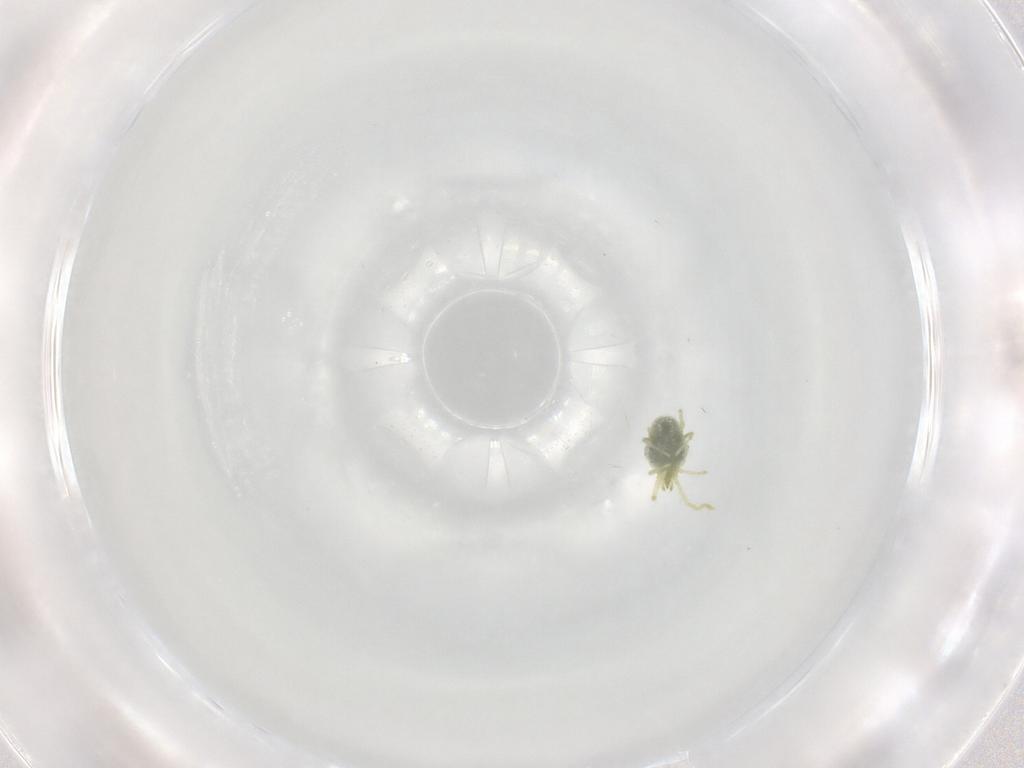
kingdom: Animalia
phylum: Arthropoda
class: Arachnida
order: Trombidiformes
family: Erythraeidae
